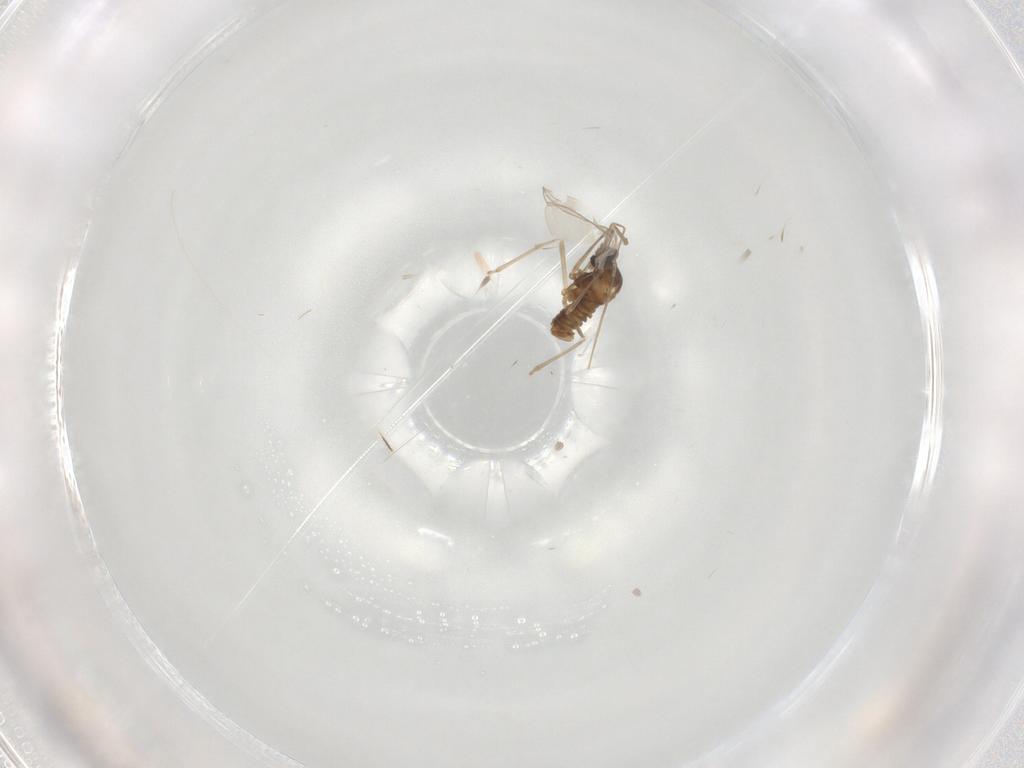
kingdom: Animalia
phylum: Arthropoda
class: Insecta
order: Diptera
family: Cecidomyiidae
